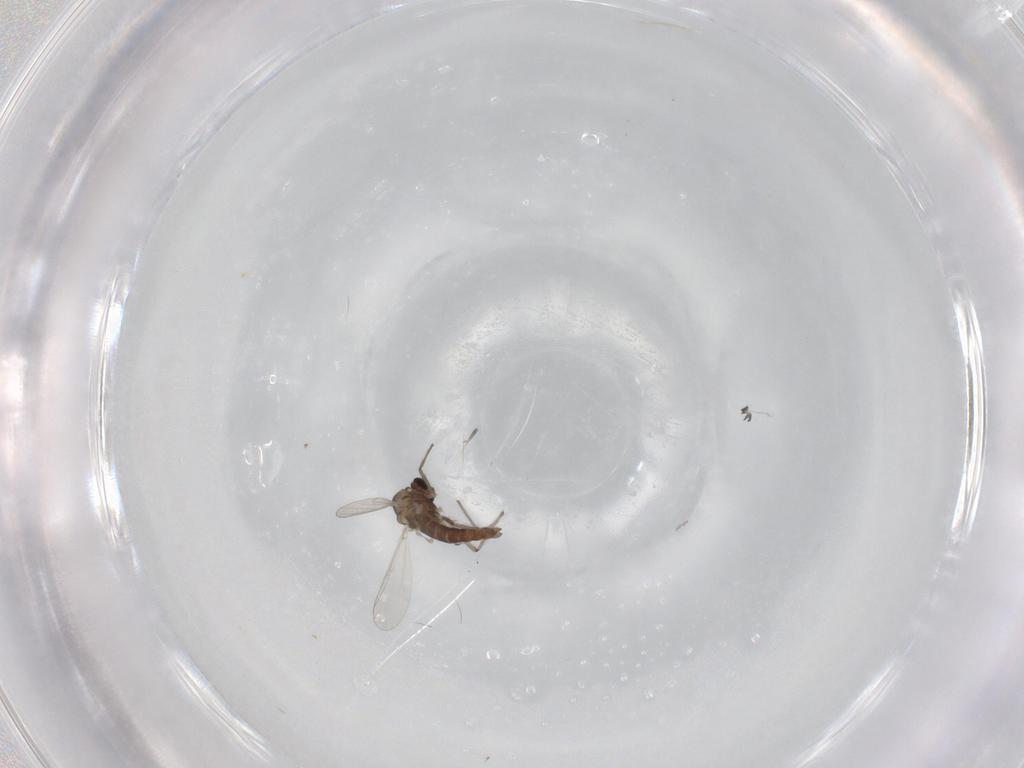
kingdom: Animalia
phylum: Arthropoda
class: Insecta
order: Diptera
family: Chironomidae
